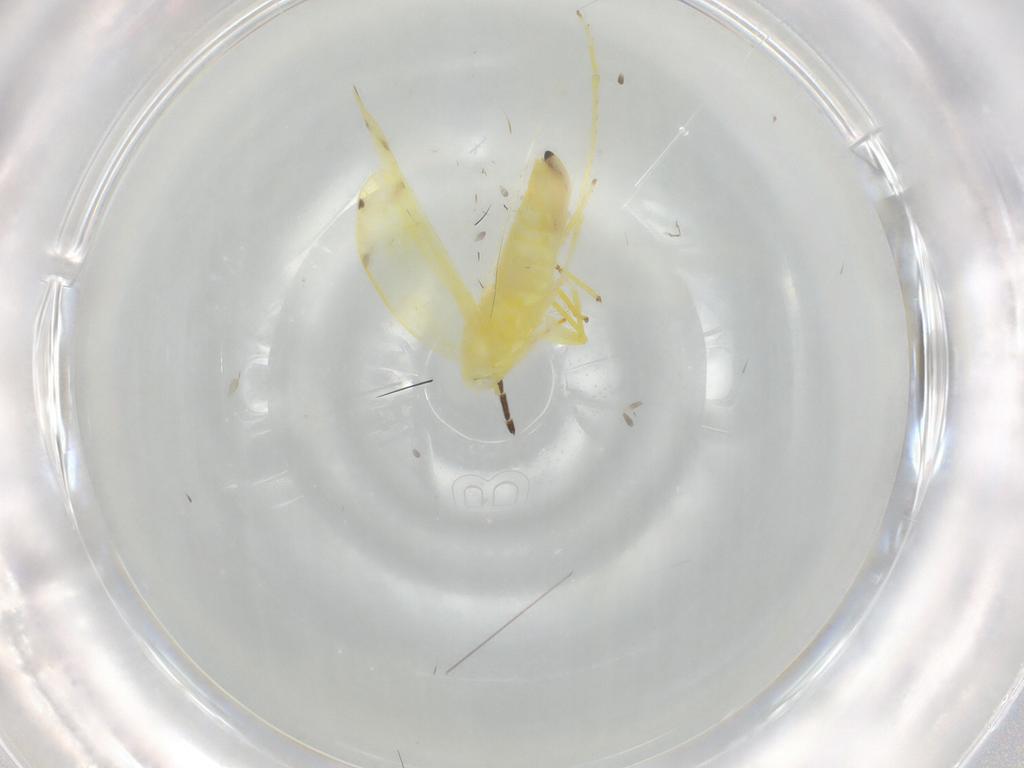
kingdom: Animalia
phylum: Arthropoda
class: Insecta
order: Hemiptera
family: Cicadellidae
